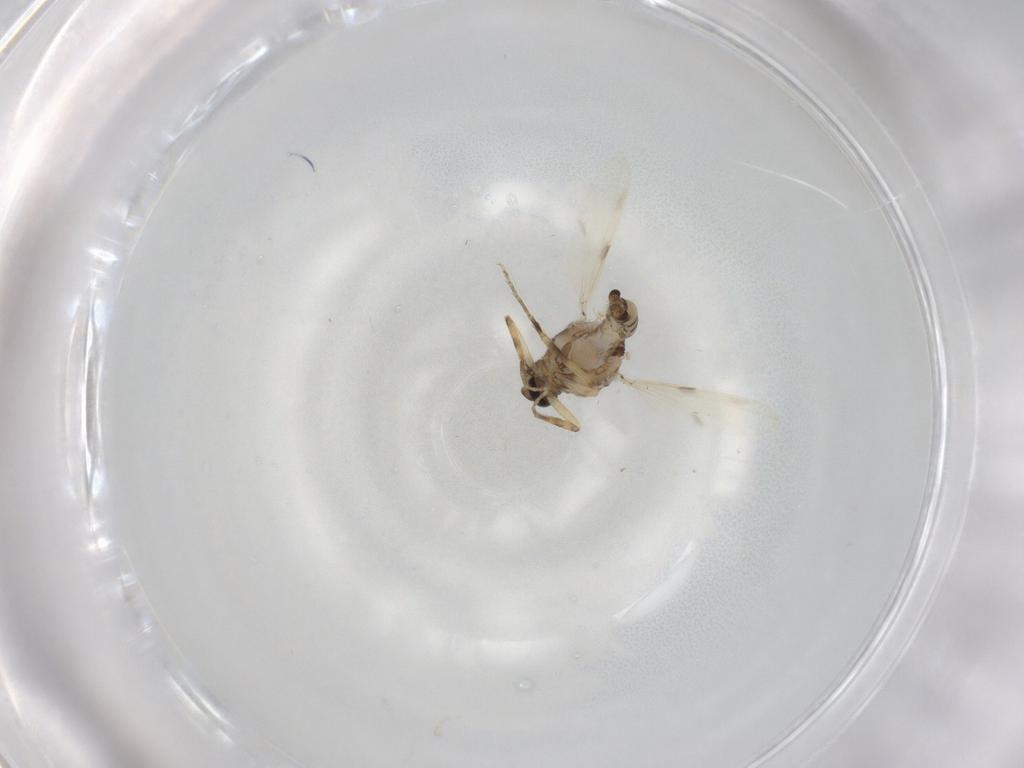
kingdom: Animalia
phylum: Arthropoda
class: Insecta
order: Diptera
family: Ceratopogonidae
